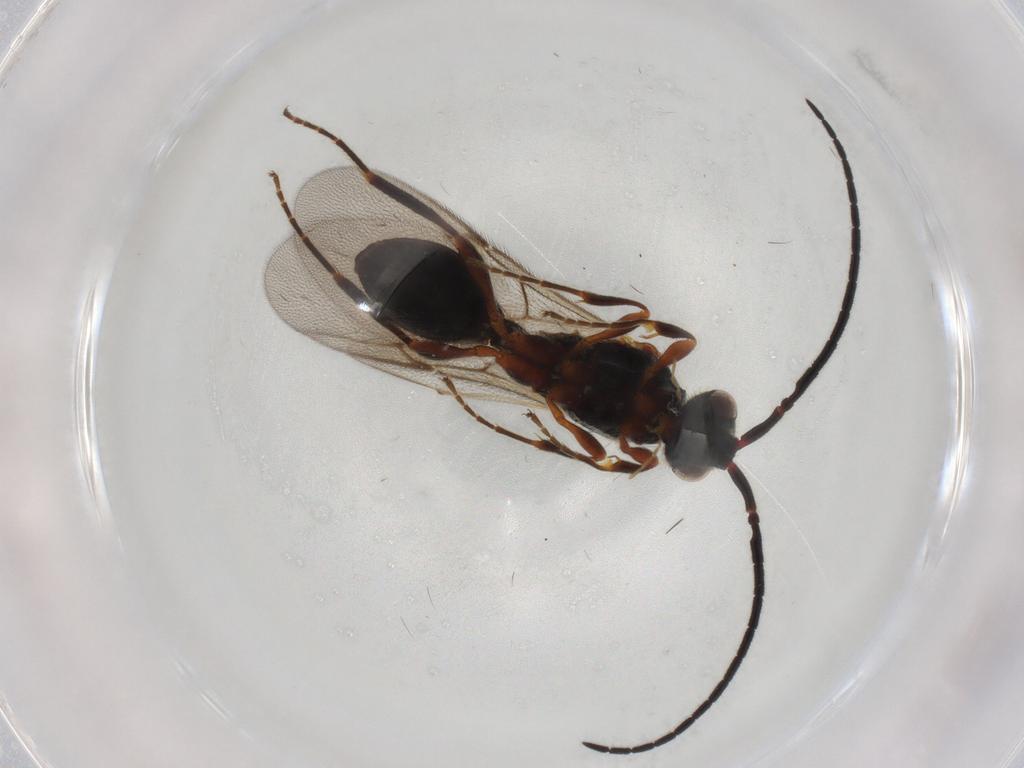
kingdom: Animalia
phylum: Arthropoda
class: Insecta
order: Hymenoptera
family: Diapriidae
